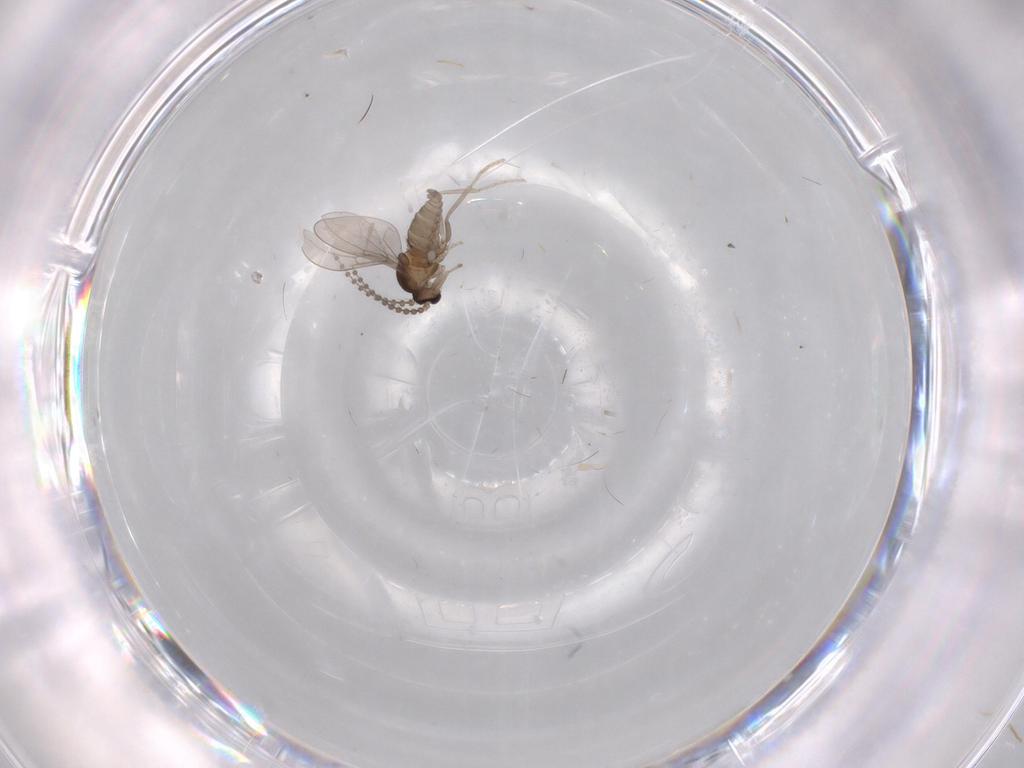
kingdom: Animalia
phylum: Arthropoda
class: Insecta
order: Diptera
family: Cecidomyiidae
